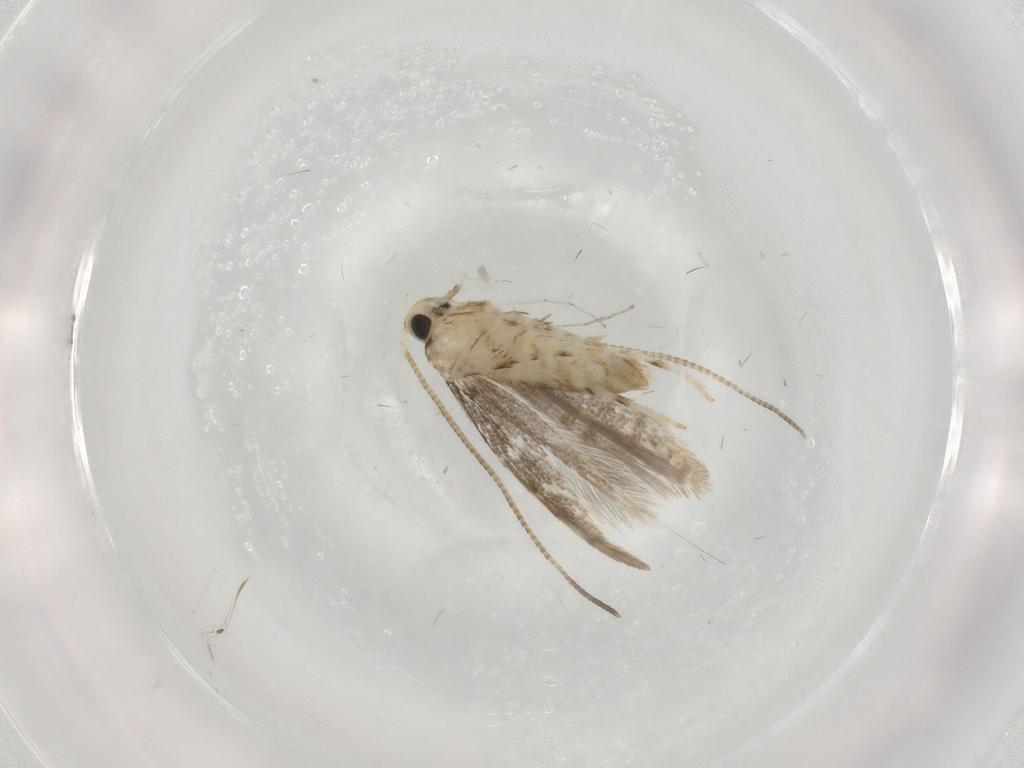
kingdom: Animalia
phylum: Arthropoda
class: Insecta
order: Lepidoptera
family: Gracillariidae
